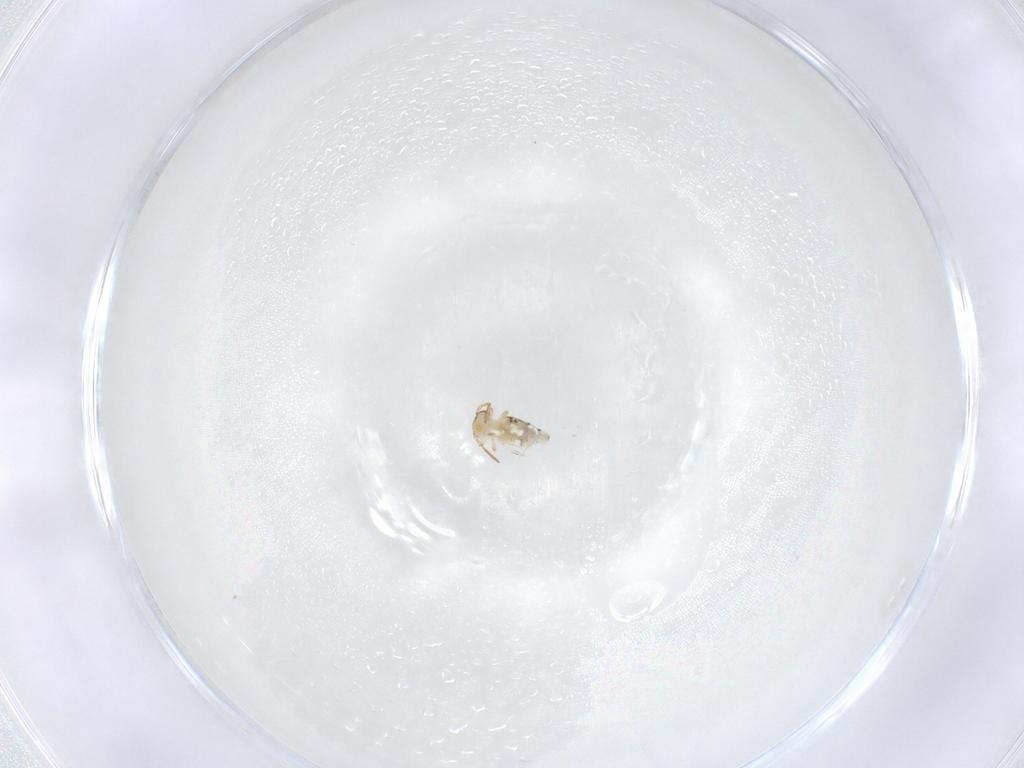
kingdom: Animalia
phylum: Arthropoda
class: Collembola
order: Symphypleona
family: Bourletiellidae
